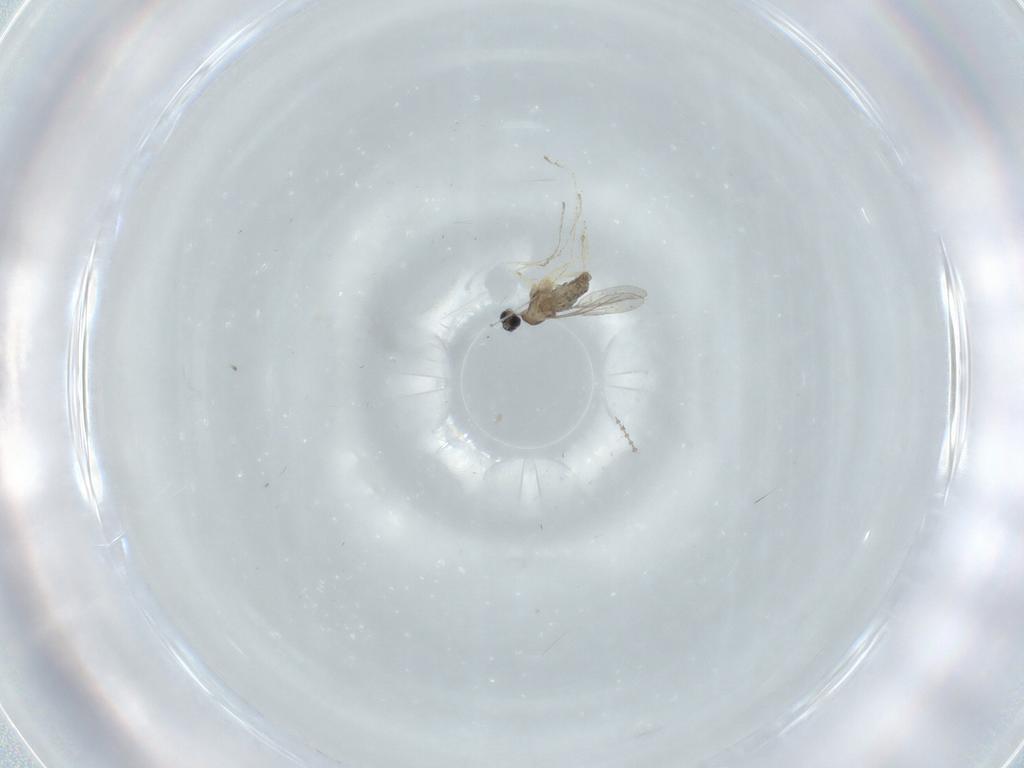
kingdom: Animalia
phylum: Arthropoda
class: Insecta
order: Diptera
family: Cecidomyiidae
